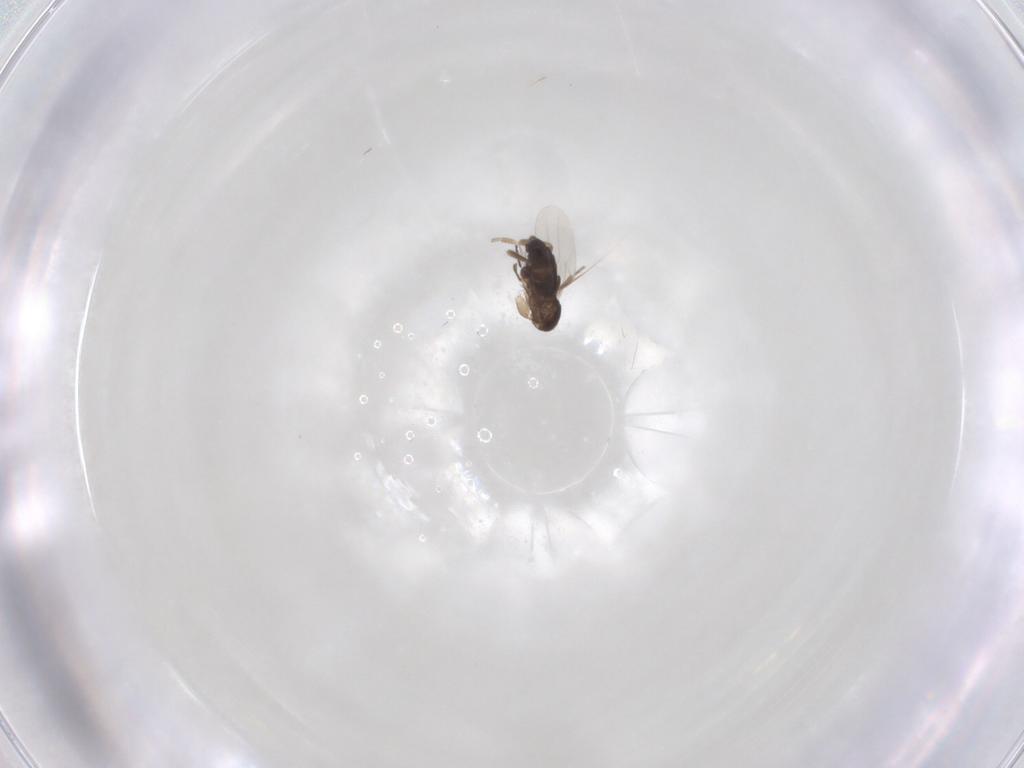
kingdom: Animalia
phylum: Arthropoda
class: Insecta
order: Diptera
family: Phoridae
